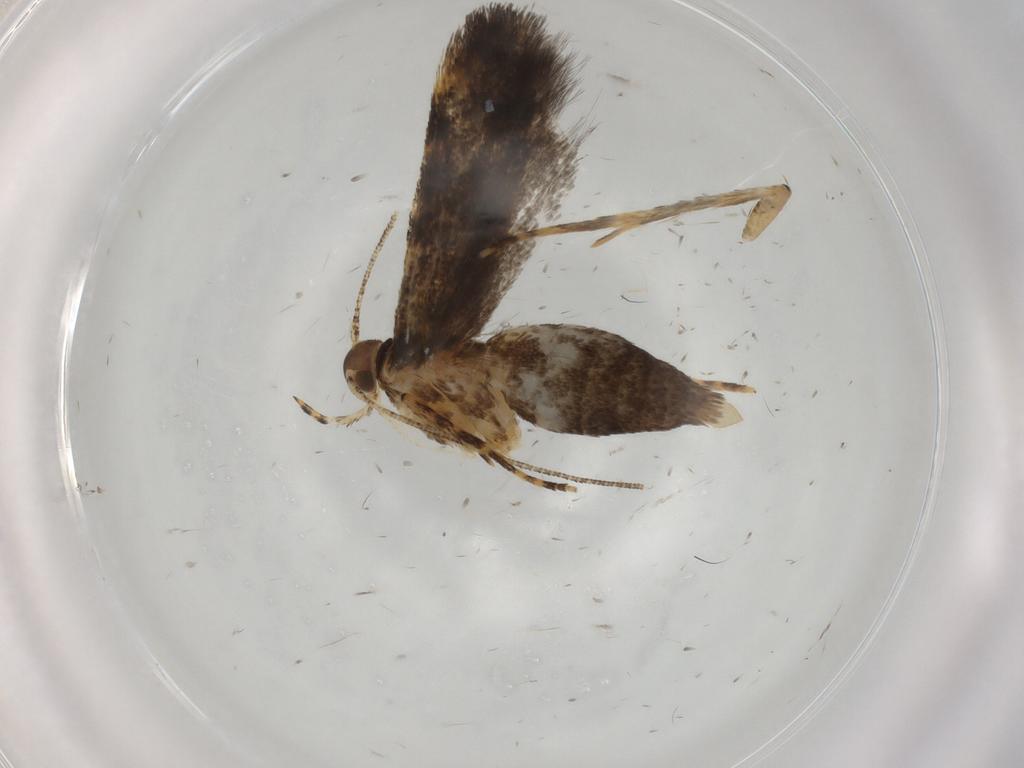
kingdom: Animalia
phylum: Arthropoda
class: Insecta
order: Lepidoptera
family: Oecophoridae
